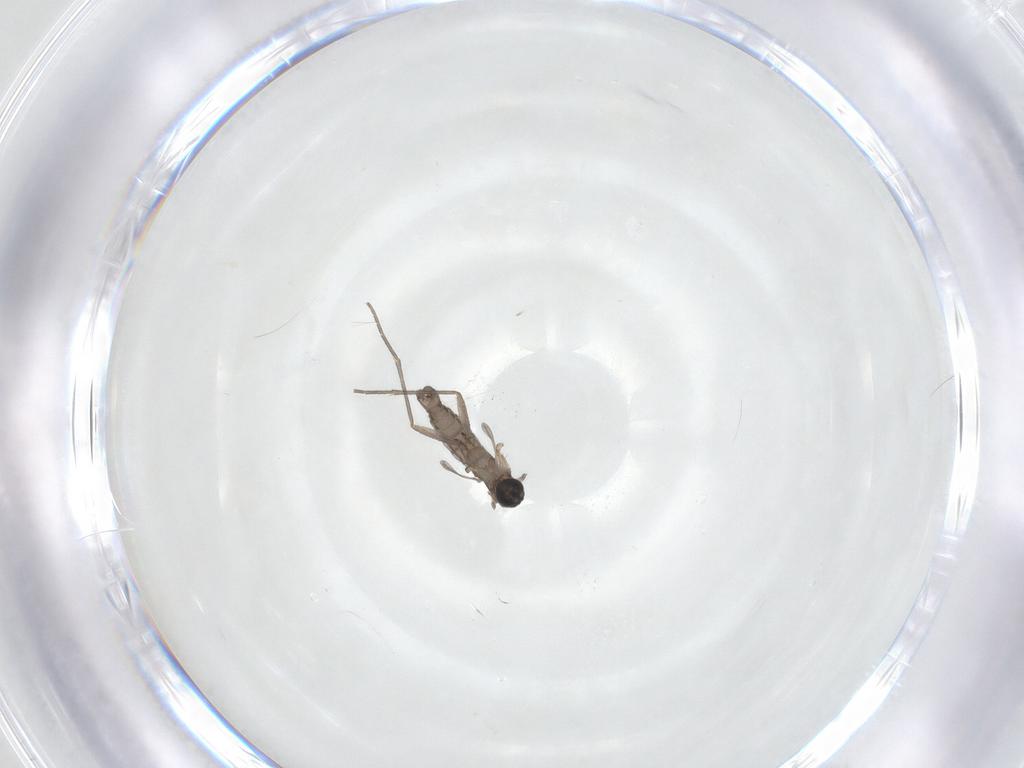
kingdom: Animalia
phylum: Arthropoda
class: Insecta
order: Diptera
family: Sciaridae
